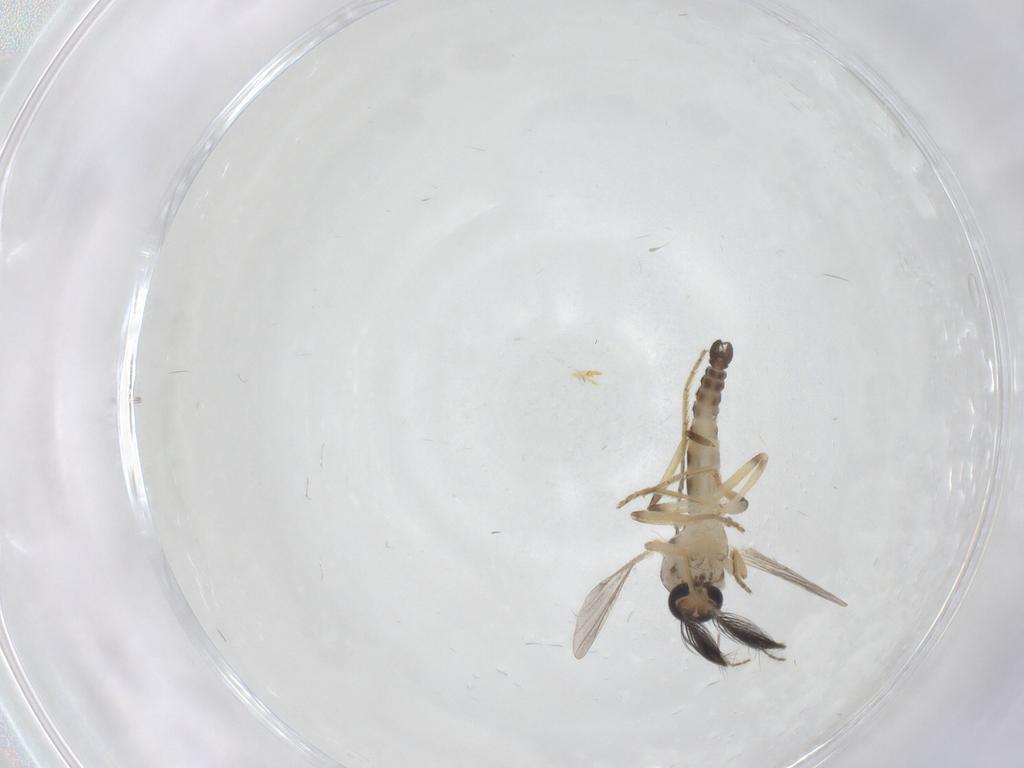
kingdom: Animalia
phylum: Arthropoda
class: Insecta
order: Diptera
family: Ceratopogonidae
